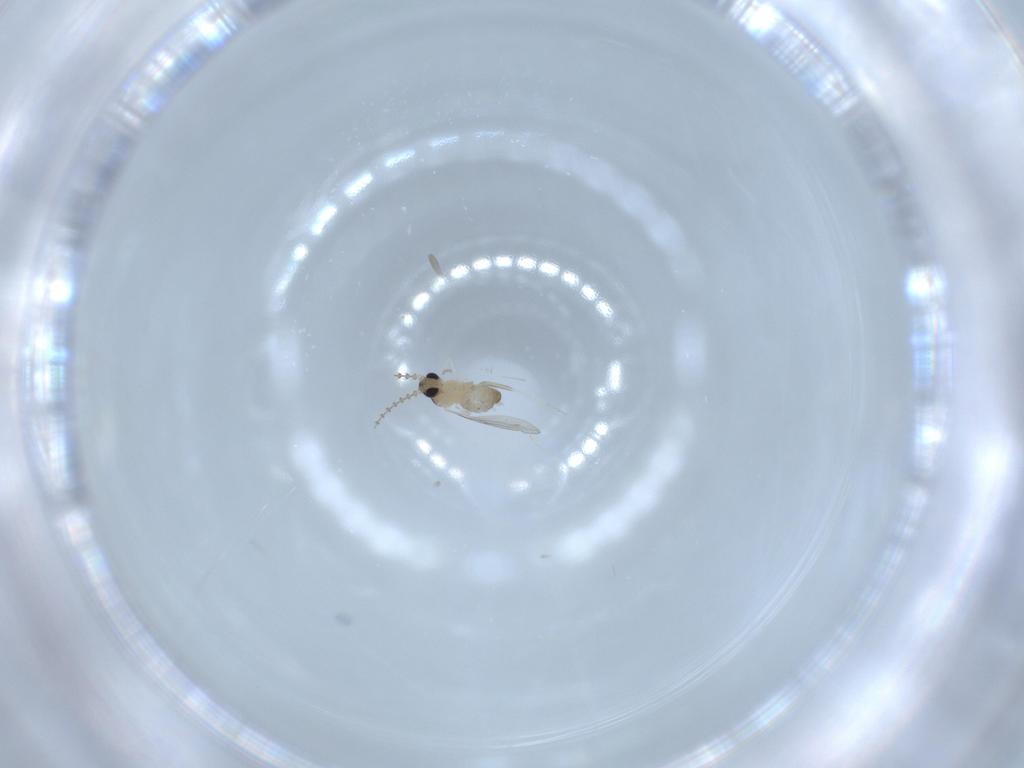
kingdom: Animalia
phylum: Arthropoda
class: Insecta
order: Diptera
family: Cecidomyiidae
